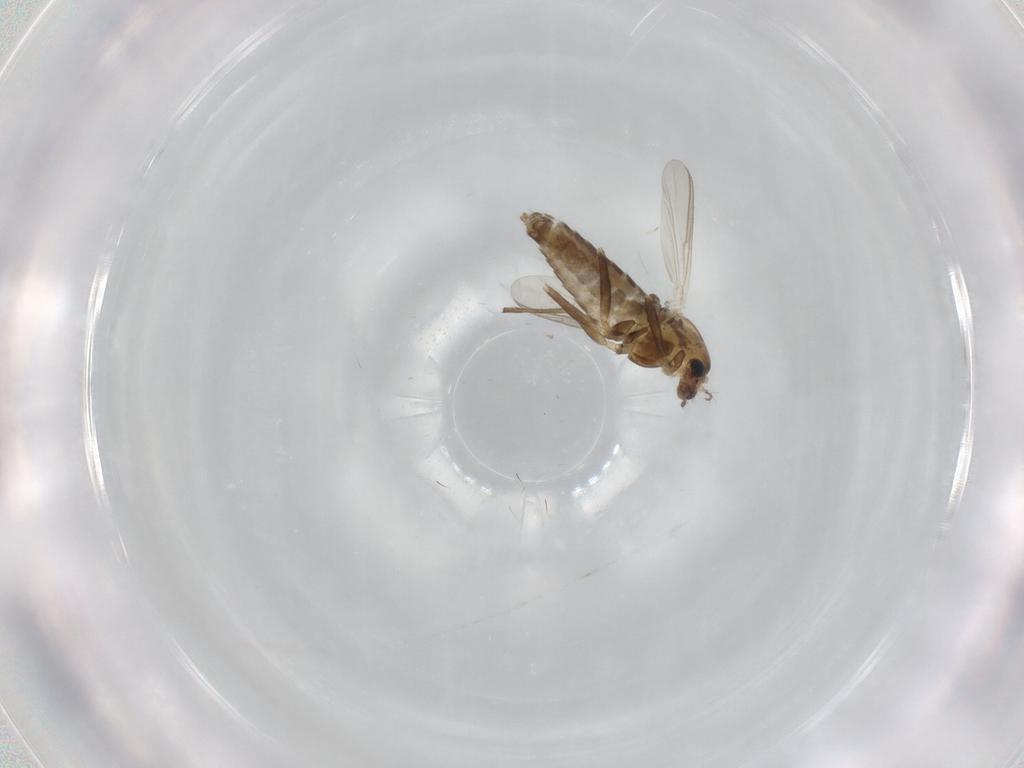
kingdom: Animalia
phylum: Arthropoda
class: Insecta
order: Diptera
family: Chironomidae
